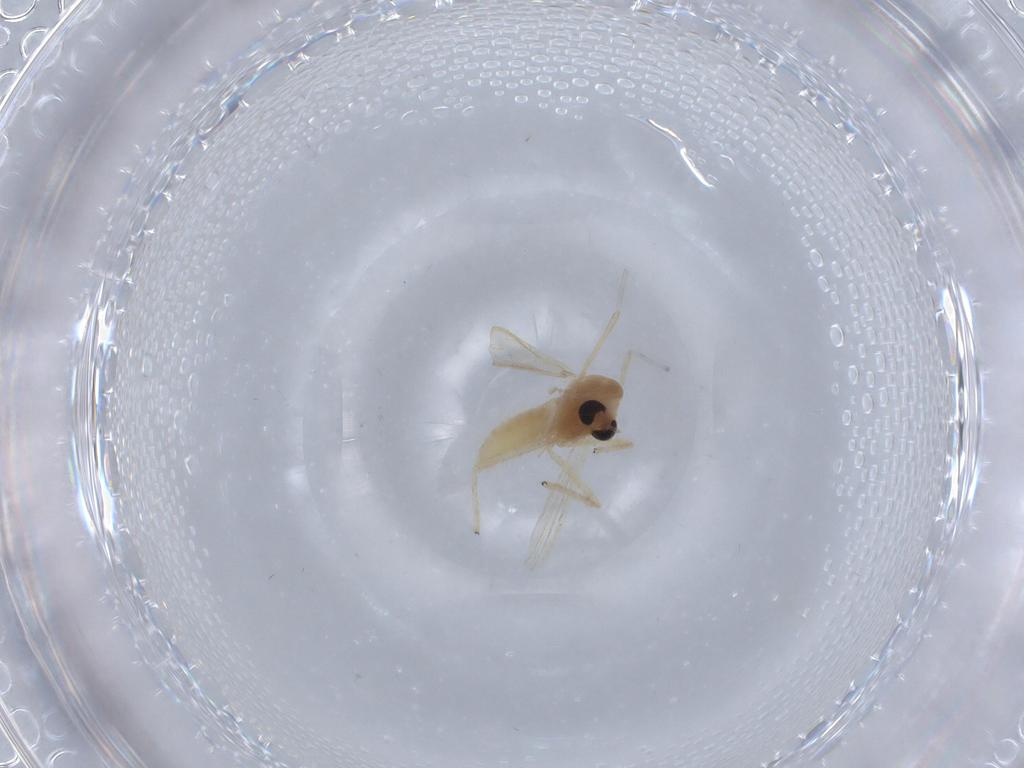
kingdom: Animalia
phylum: Arthropoda
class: Insecta
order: Diptera
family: Chironomidae
